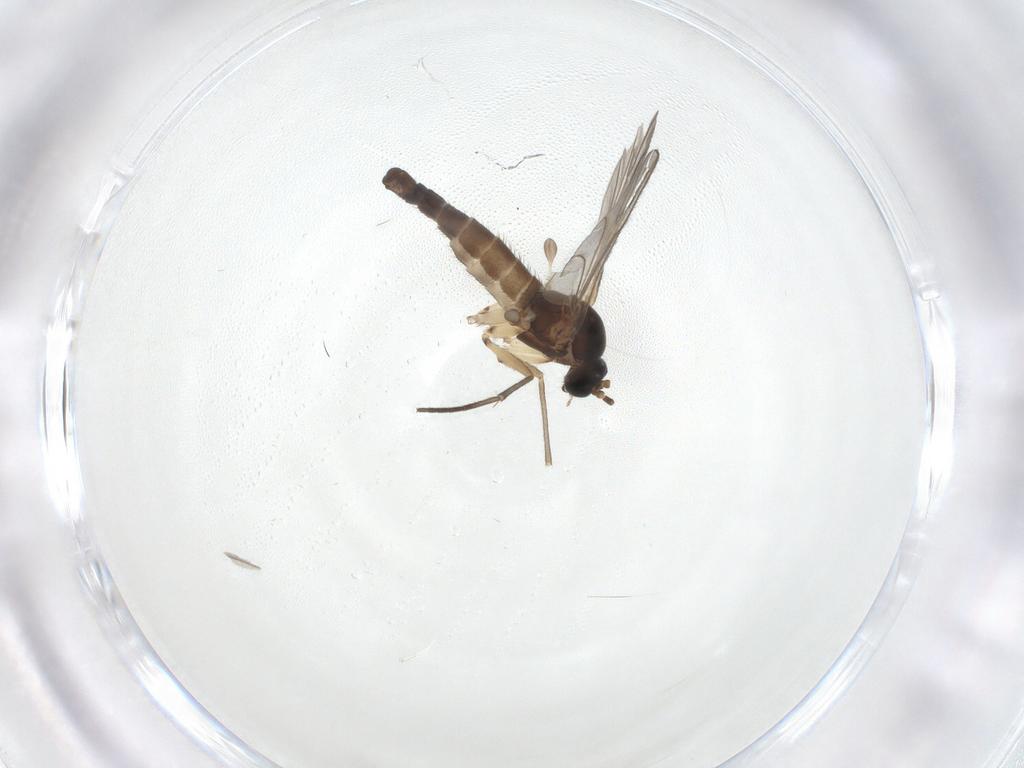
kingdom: Animalia
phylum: Arthropoda
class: Insecta
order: Diptera
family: Sciaridae
